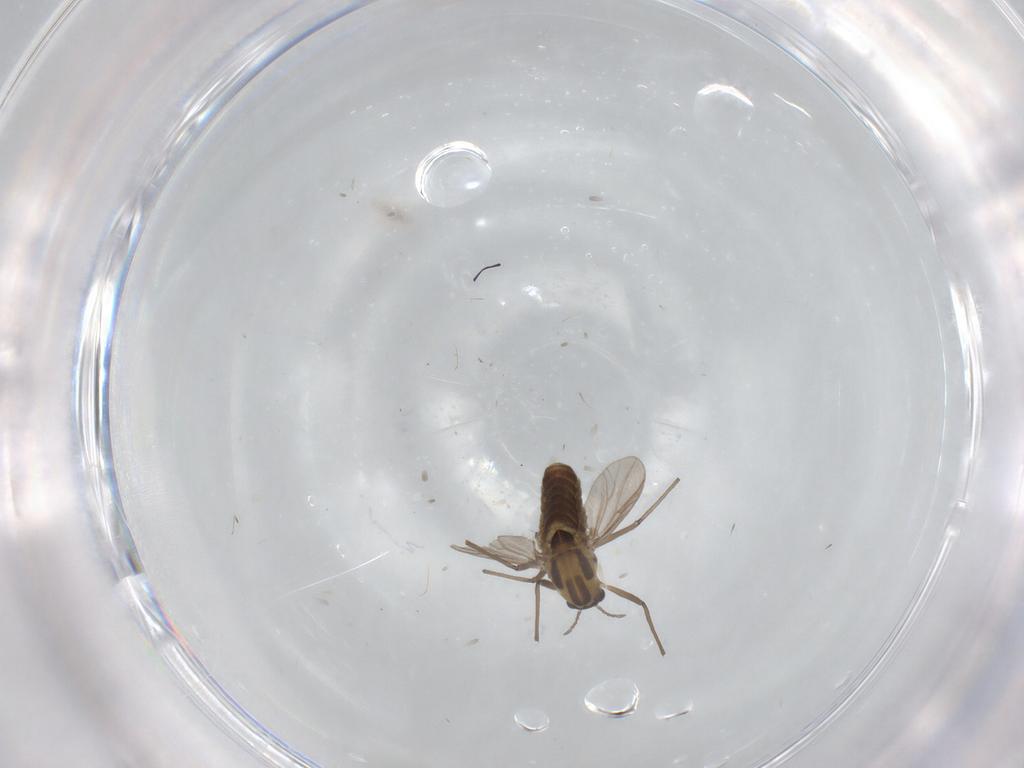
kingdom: Animalia
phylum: Arthropoda
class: Insecta
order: Diptera
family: Chironomidae
